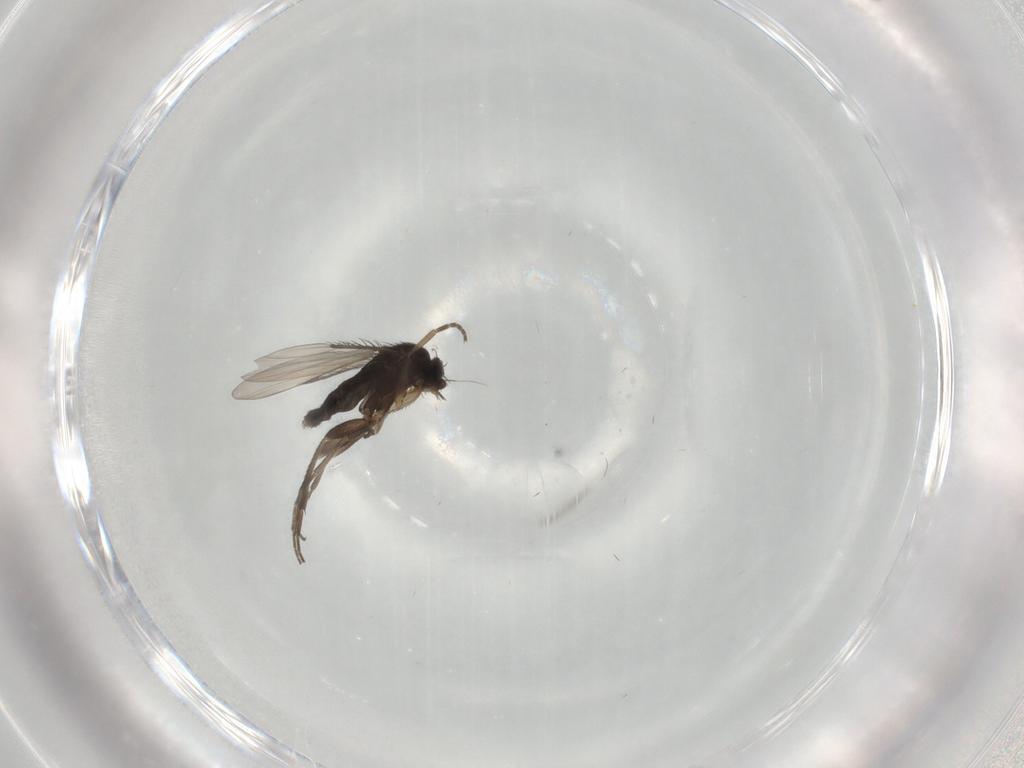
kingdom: Animalia
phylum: Arthropoda
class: Insecta
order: Diptera
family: Phoridae
